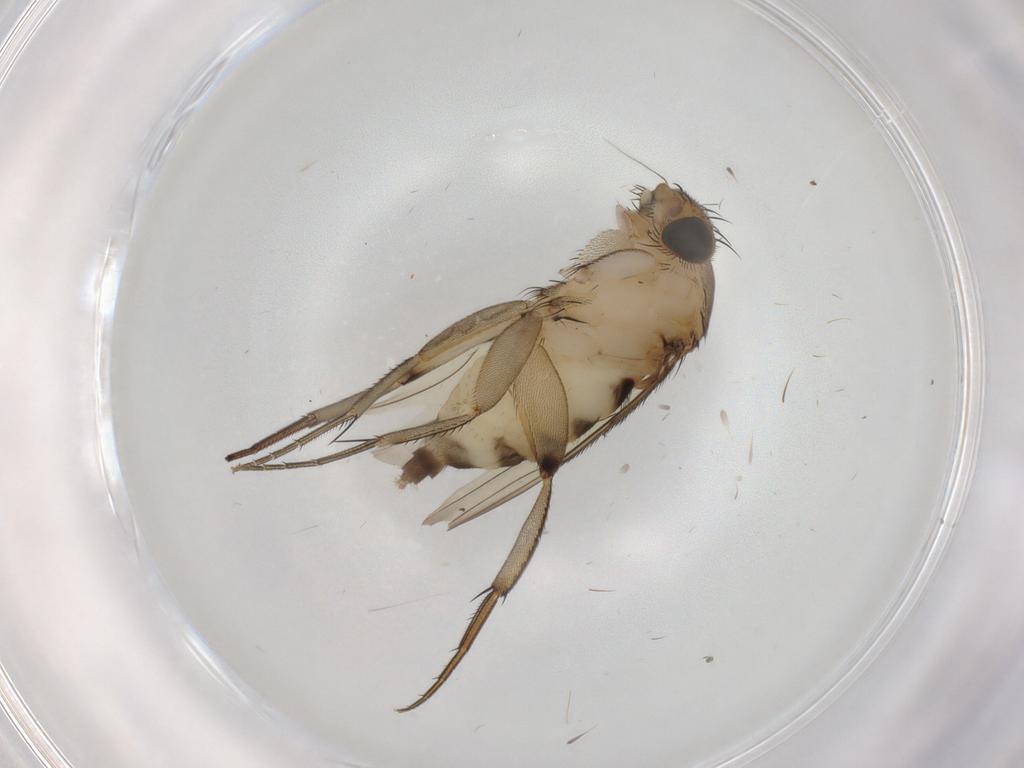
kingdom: Animalia
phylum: Arthropoda
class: Insecta
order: Diptera
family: Phoridae
